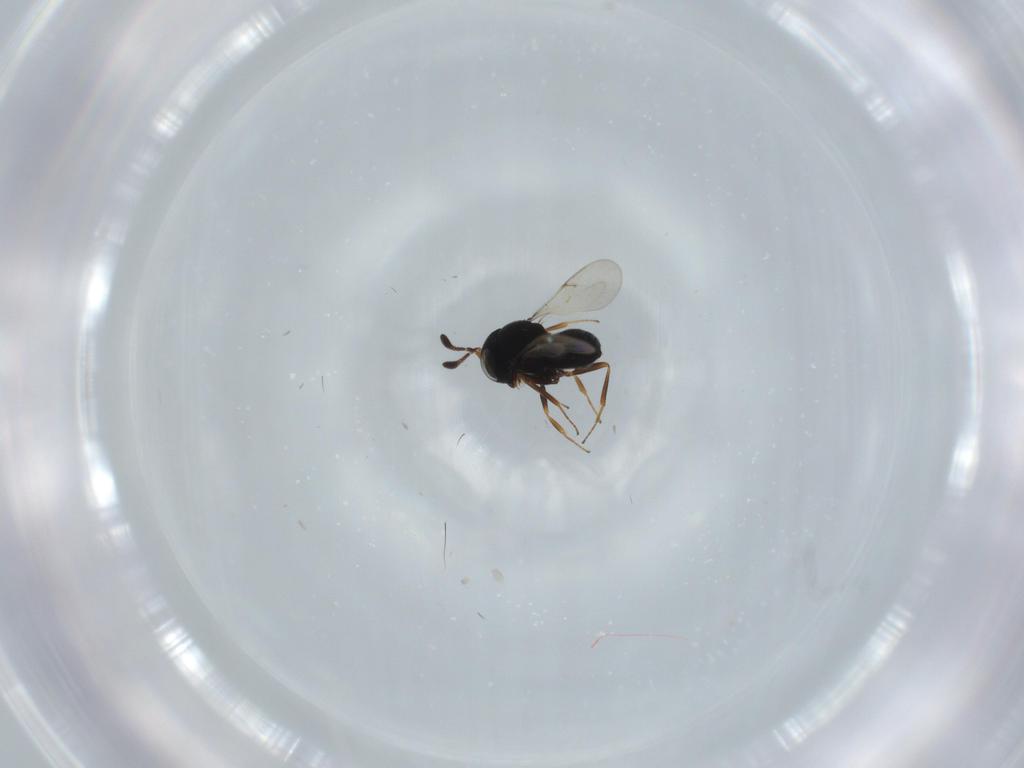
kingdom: Animalia
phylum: Arthropoda
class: Insecta
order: Hymenoptera
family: Scelionidae
